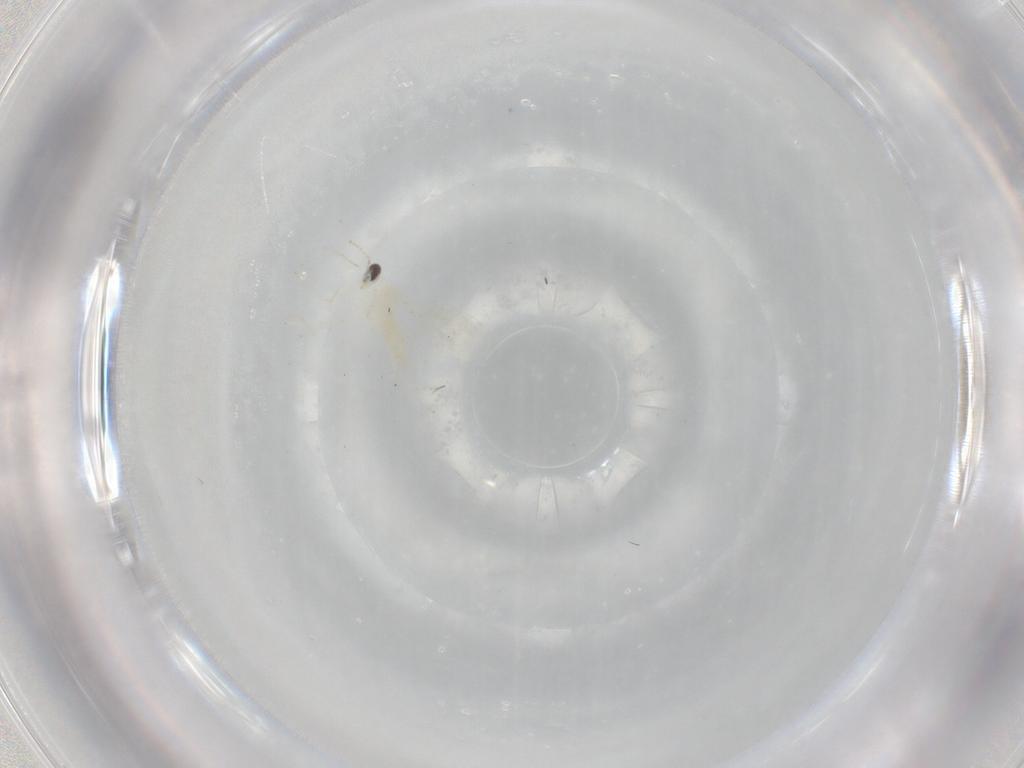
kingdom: Animalia
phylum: Arthropoda
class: Insecta
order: Diptera
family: Cecidomyiidae
